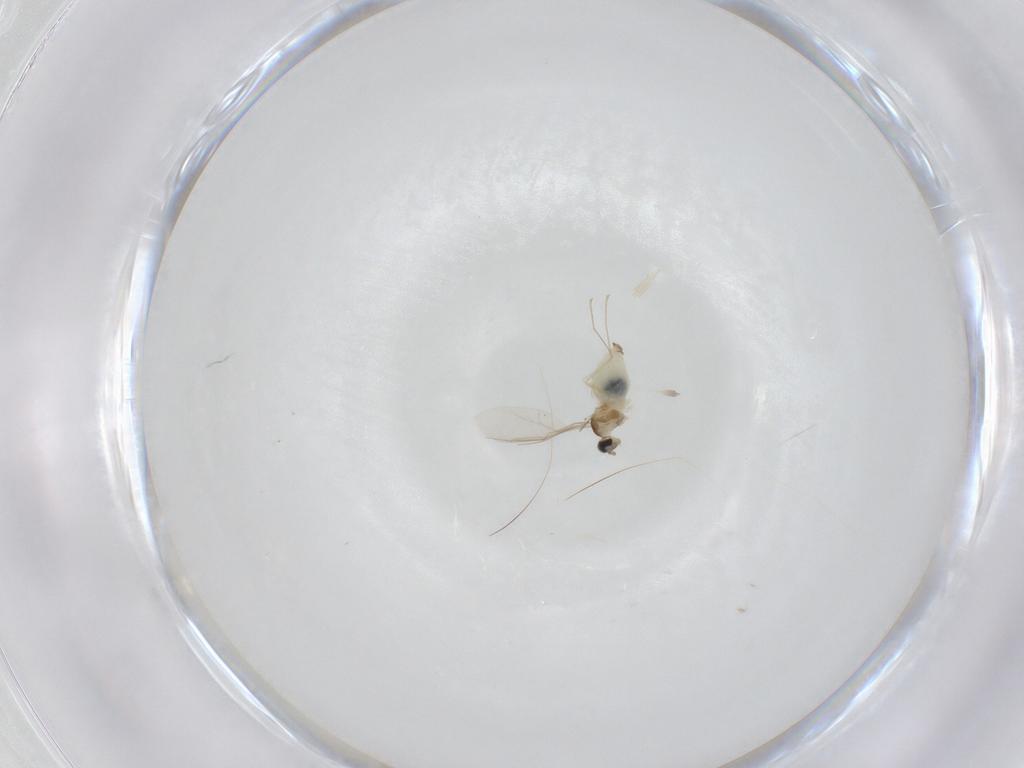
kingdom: Animalia
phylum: Arthropoda
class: Insecta
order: Diptera
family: Cecidomyiidae
